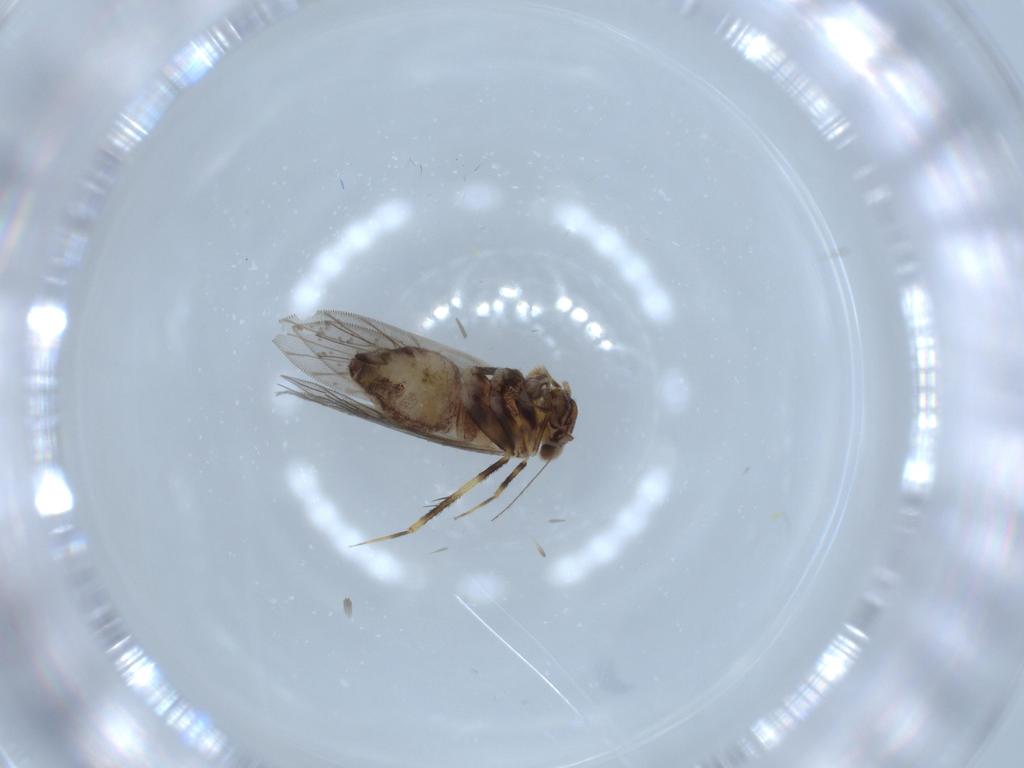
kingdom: Animalia
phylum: Arthropoda
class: Insecta
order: Psocodea
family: Lepidopsocidae
